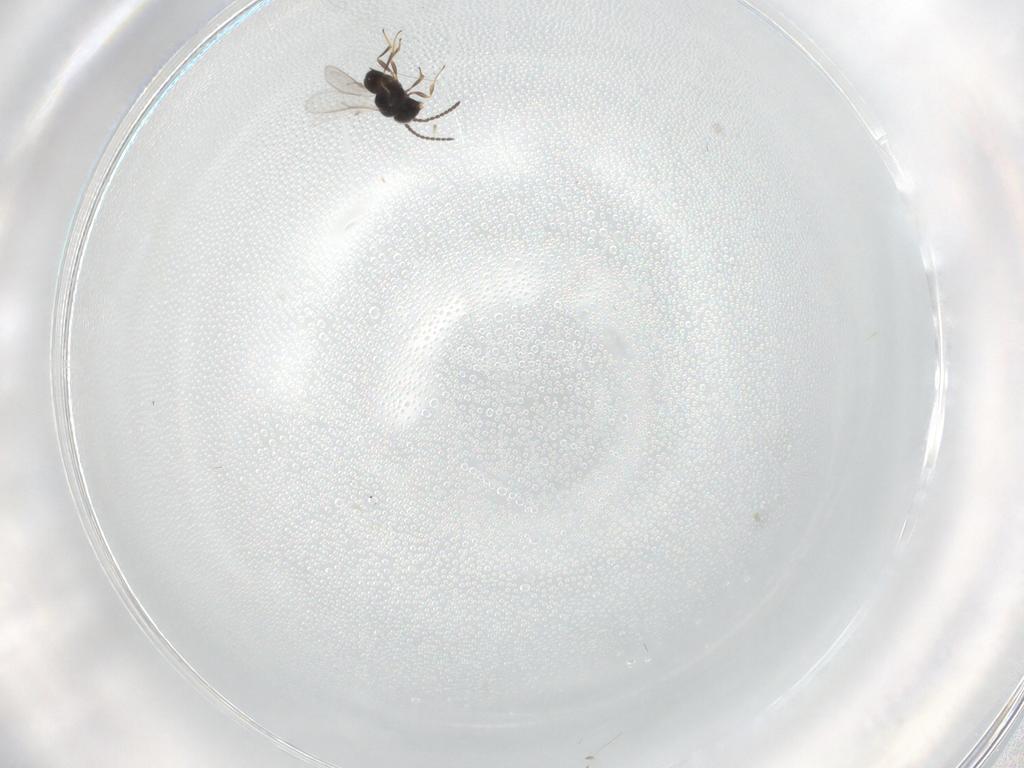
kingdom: Animalia
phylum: Arthropoda
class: Insecta
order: Hymenoptera
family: Scelionidae
